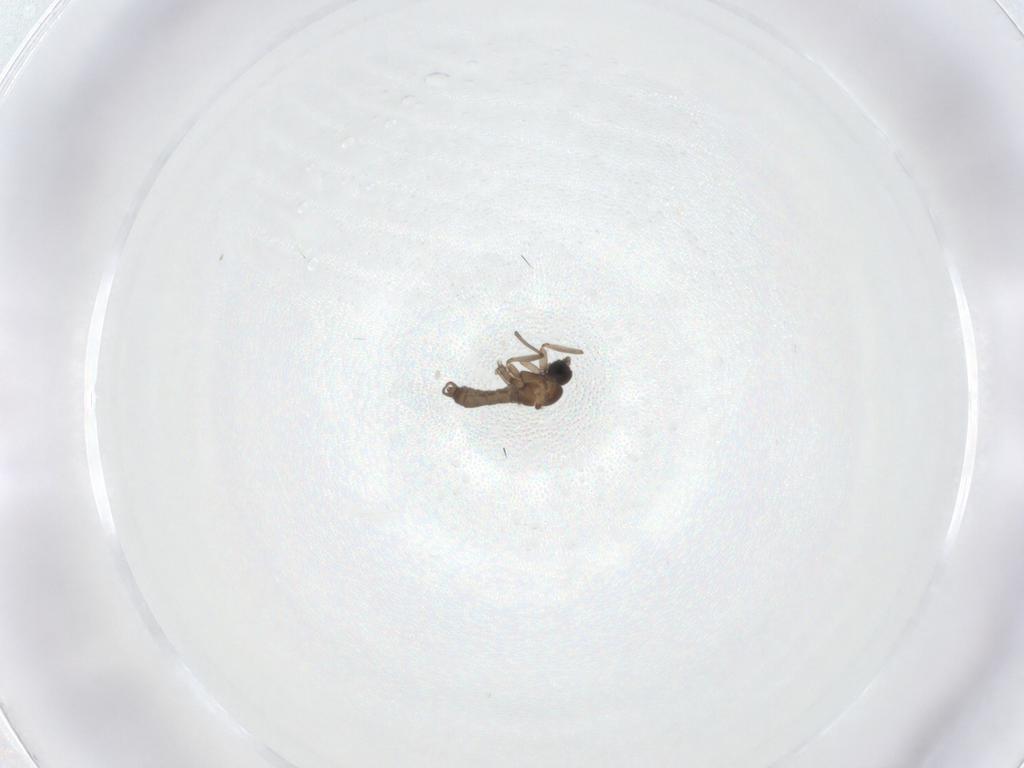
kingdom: Animalia
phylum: Arthropoda
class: Insecta
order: Diptera
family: Sciaridae
